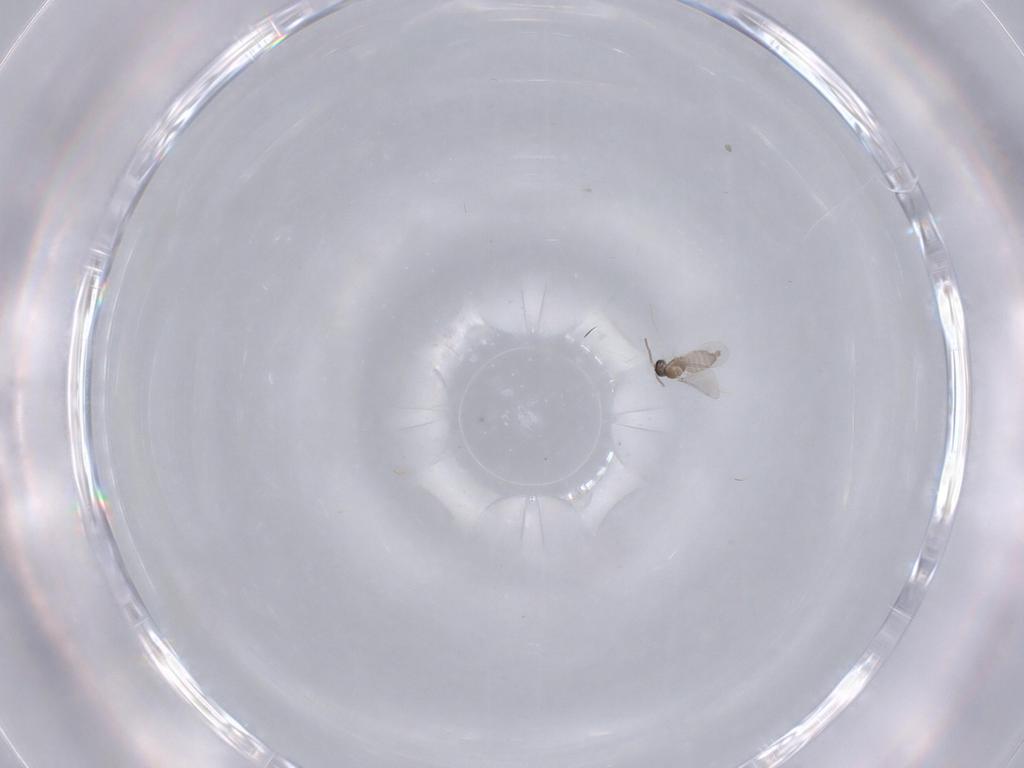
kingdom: Animalia
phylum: Arthropoda
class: Insecta
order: Diptera
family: Cecidomyiidae
